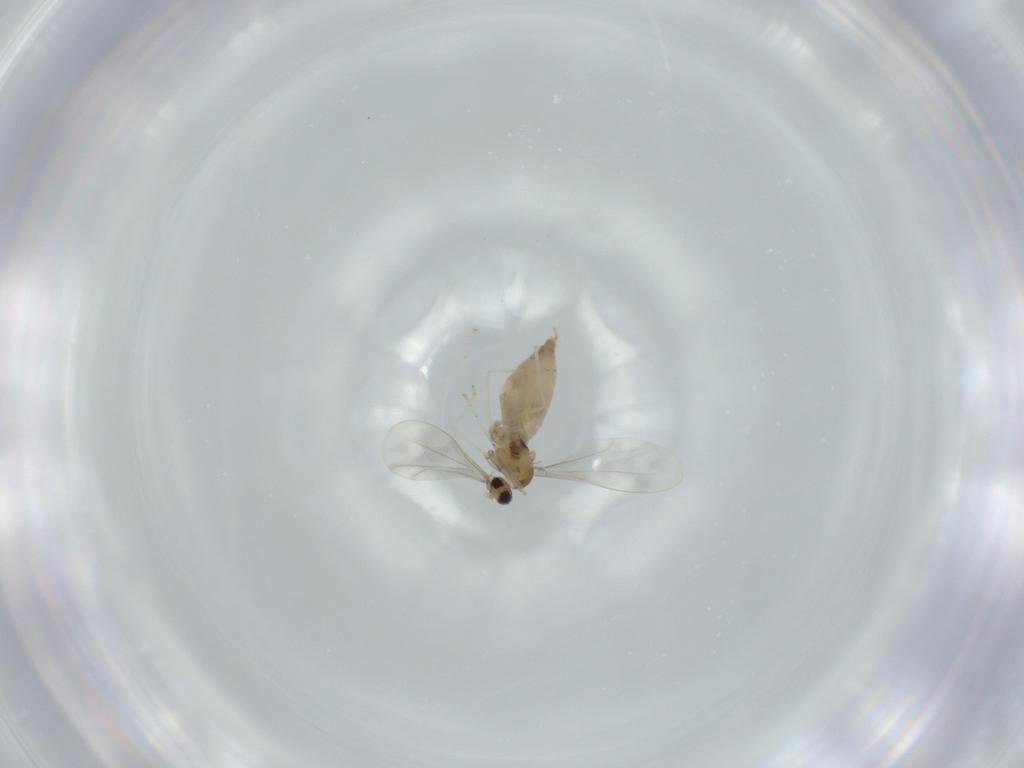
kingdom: Animalia
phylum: Arthropoda
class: Insecta
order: Diptera
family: Cecidomyiidae
